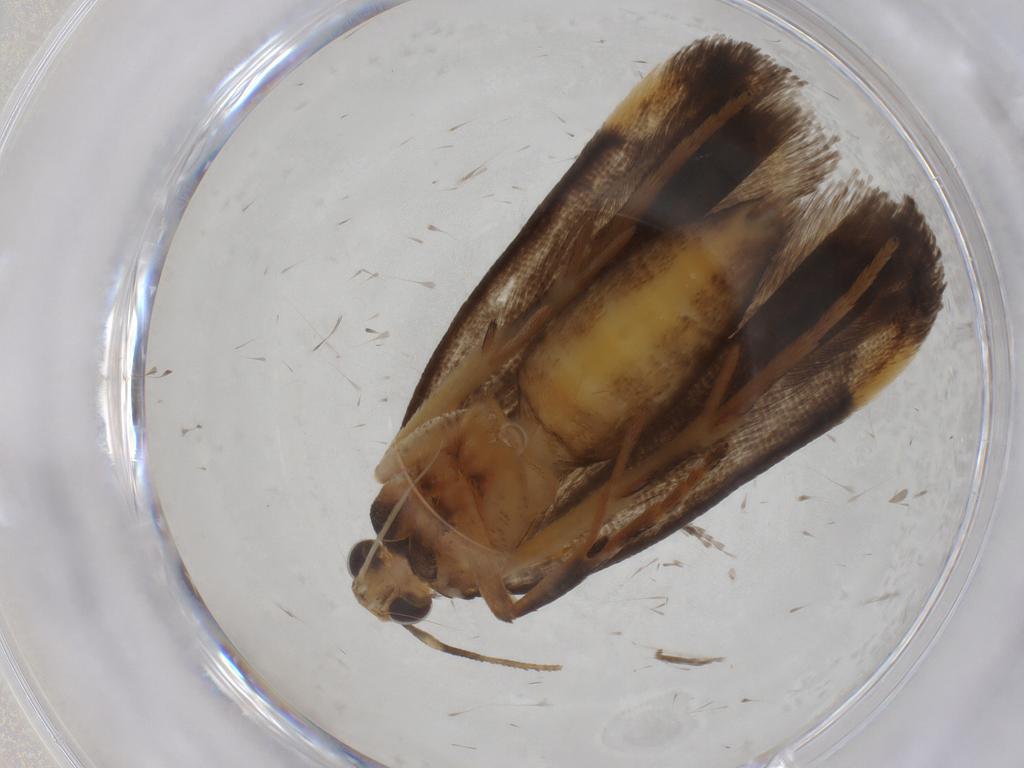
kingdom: Animalia
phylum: Arthropoda
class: Insecta
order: Lepidoptera
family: Gelechiidae
